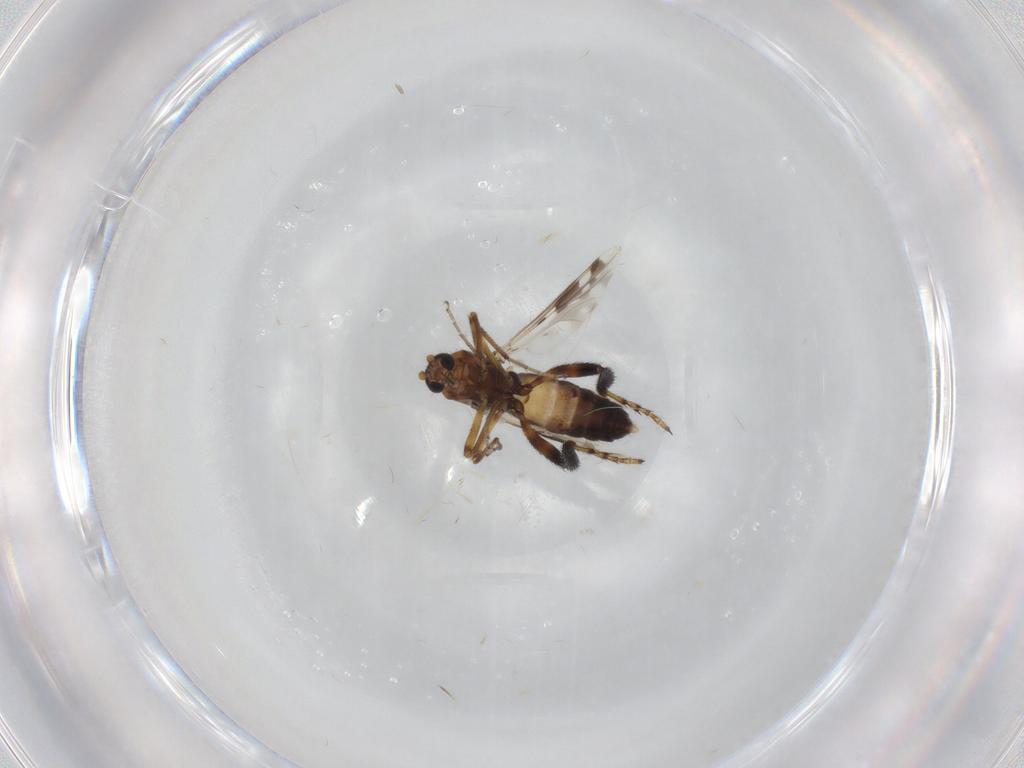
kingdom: Animalia
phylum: Arthropoda
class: Insecta
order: Diptera
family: Ceratopogonidae
